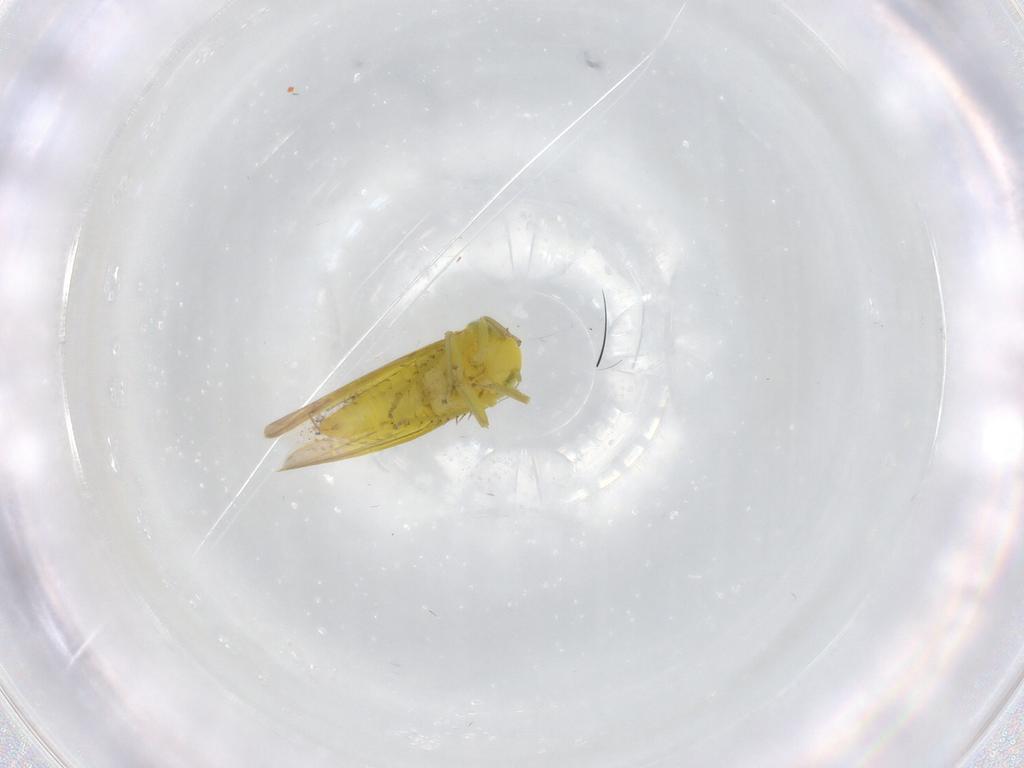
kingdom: Animalia
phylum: Arthropoda
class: Insecta
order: Hemiptera
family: Cicadellidae
